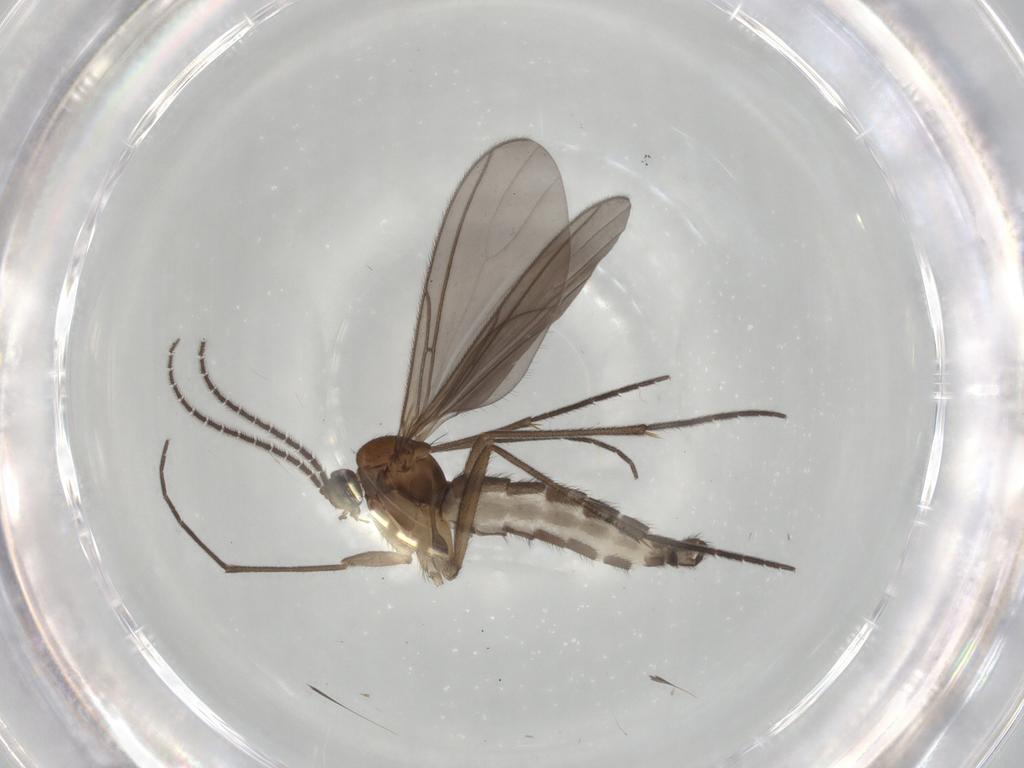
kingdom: Animalia
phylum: Arthropoda
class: Insecta
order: Diptera
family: Sciaridae
